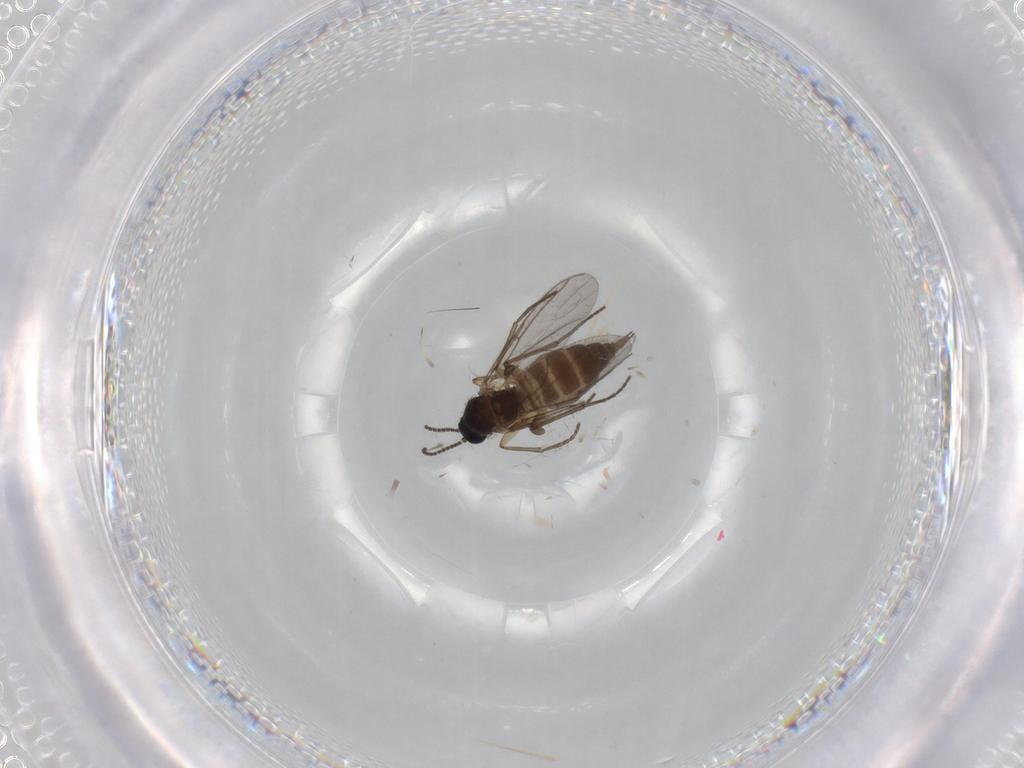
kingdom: Animalia
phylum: Arthropoda
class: Insecta
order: Diptera
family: Sciaridae
